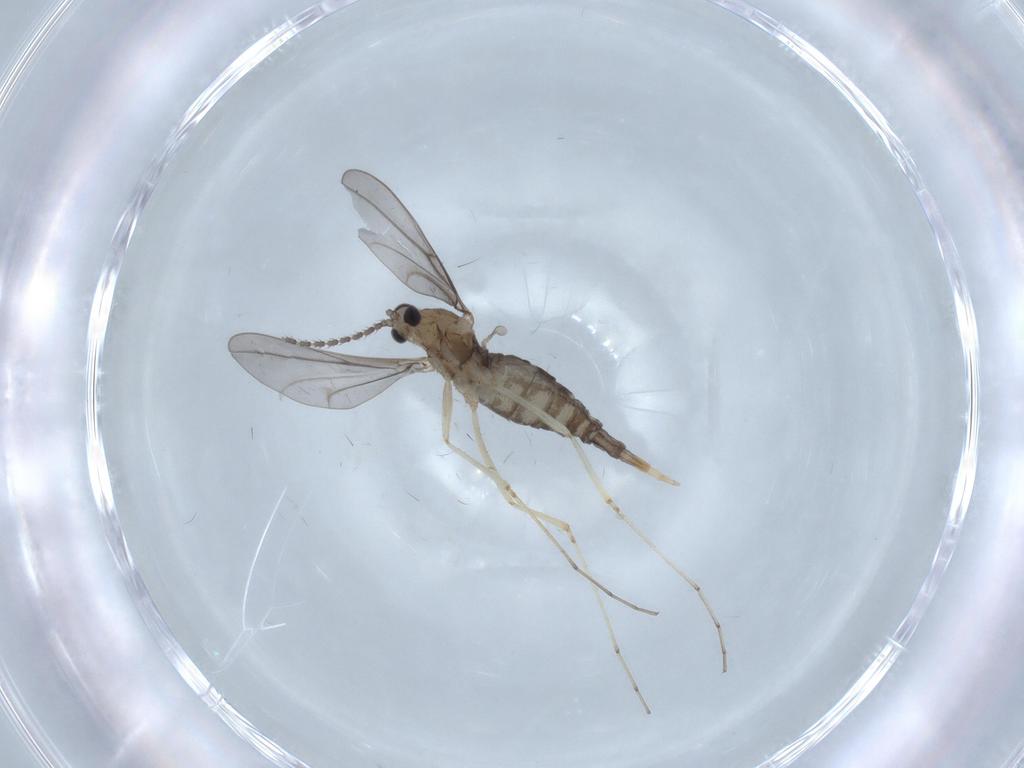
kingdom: Animalia
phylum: Arthropoda
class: Insecta
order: Diptera
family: Cecidomyiidae
